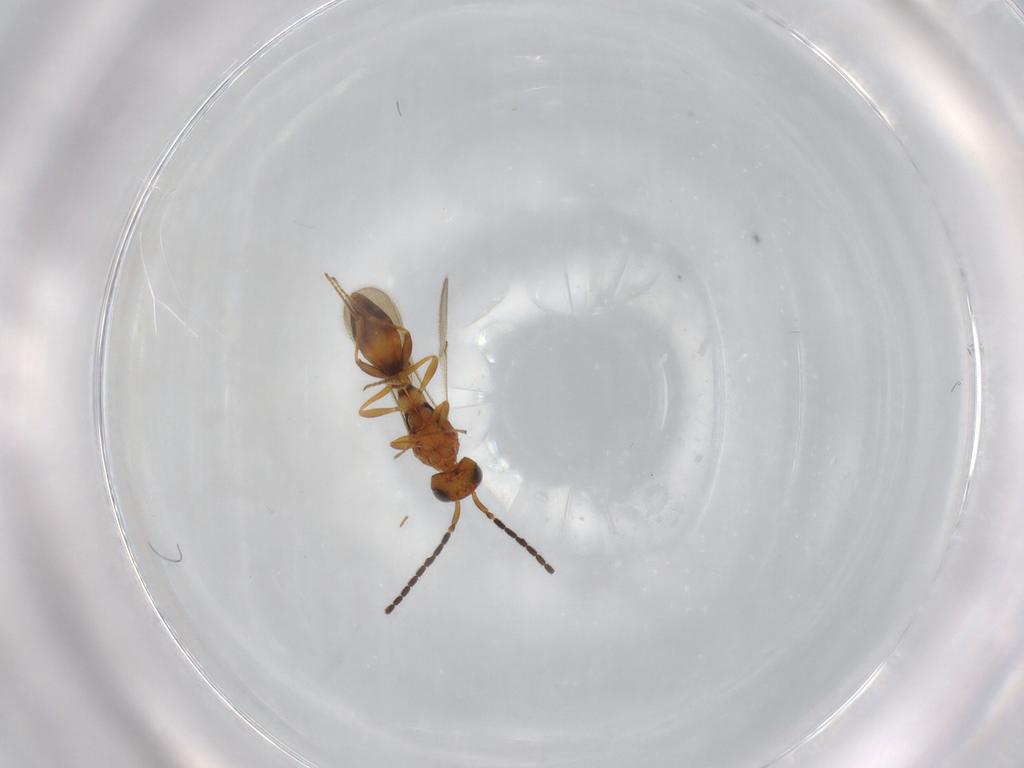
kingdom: Animalia
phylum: Arthropoda
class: Insecta
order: Hymenoptera
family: Scelionidae
